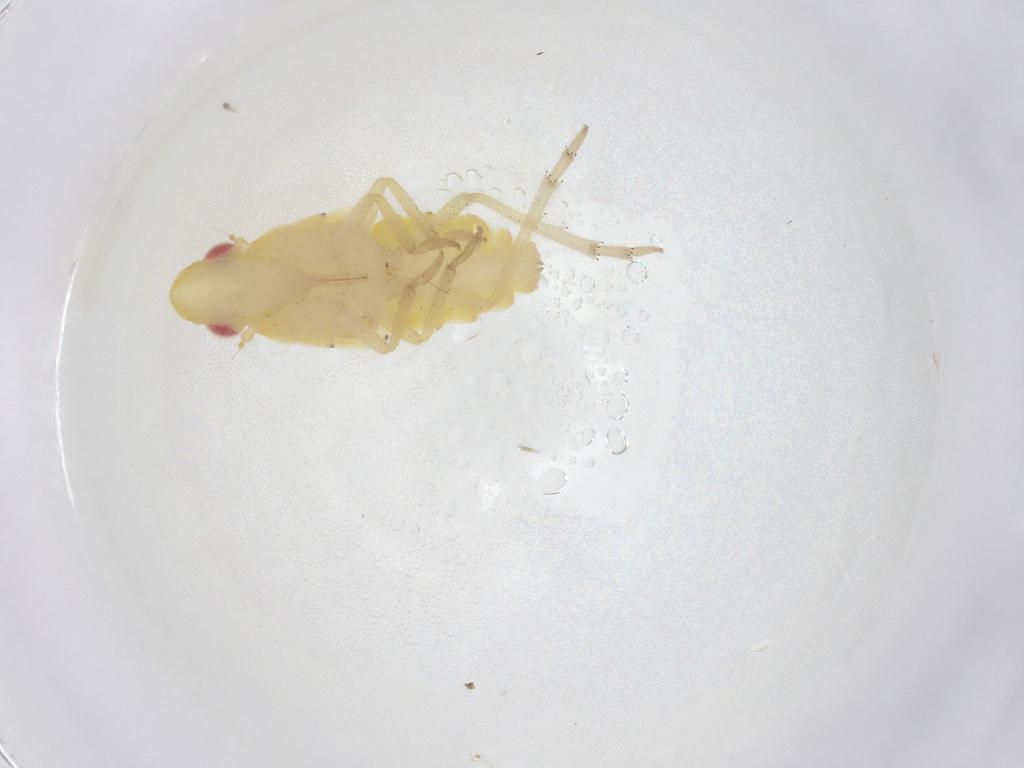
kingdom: Animalia
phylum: Arthropoda
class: Insecta
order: Hemiptera
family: Tropiduchidae
